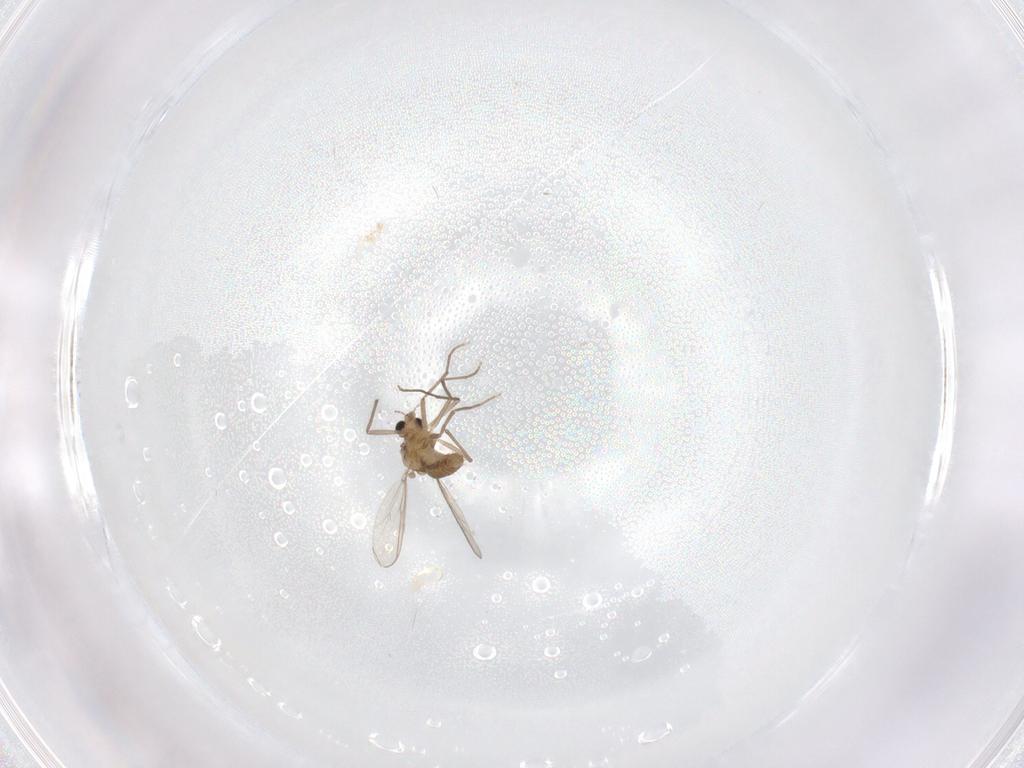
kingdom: Animalia
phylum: Arthropoda
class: Insecta
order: Diptera
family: Chironomidae
